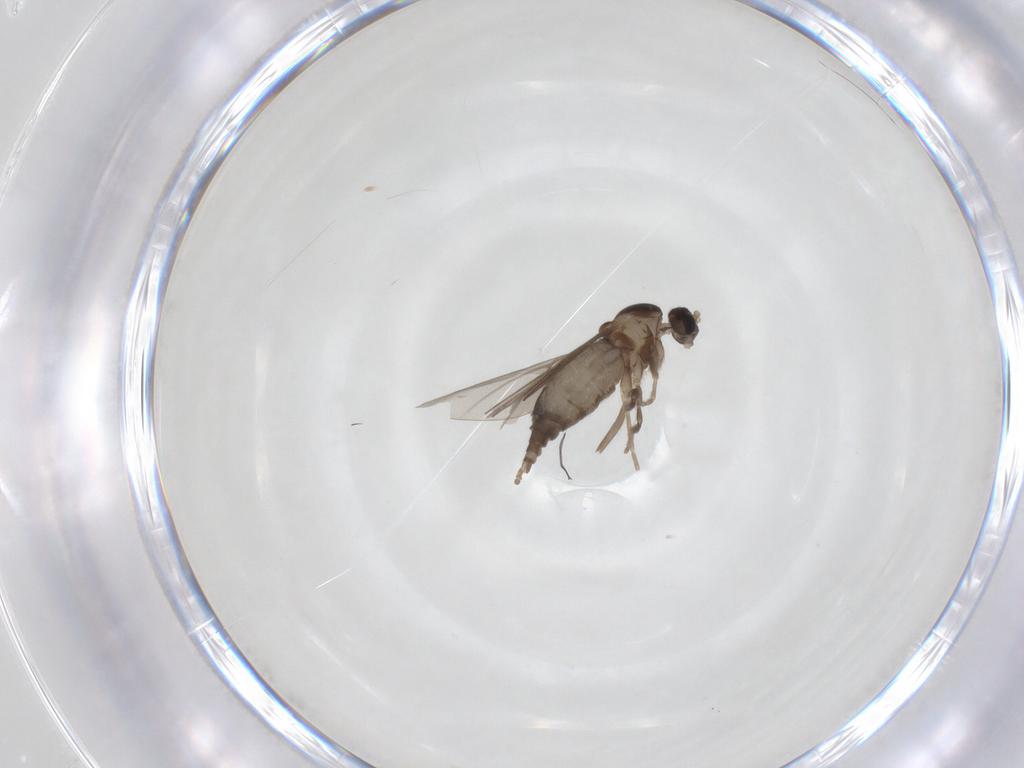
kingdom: Animalia
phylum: Arthropoda
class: Insecta
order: Diptera
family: Cecidomyiidae
